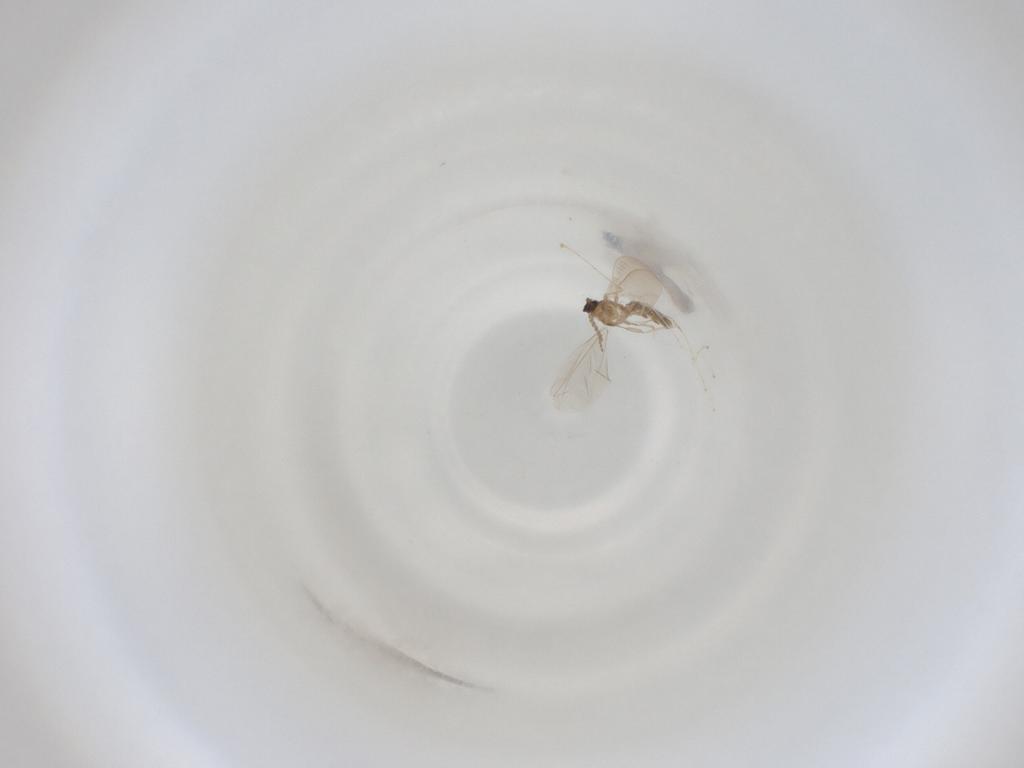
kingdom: Animalia
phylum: Arthropoda
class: Insecta
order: Diptera
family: Cecidomyiidae
